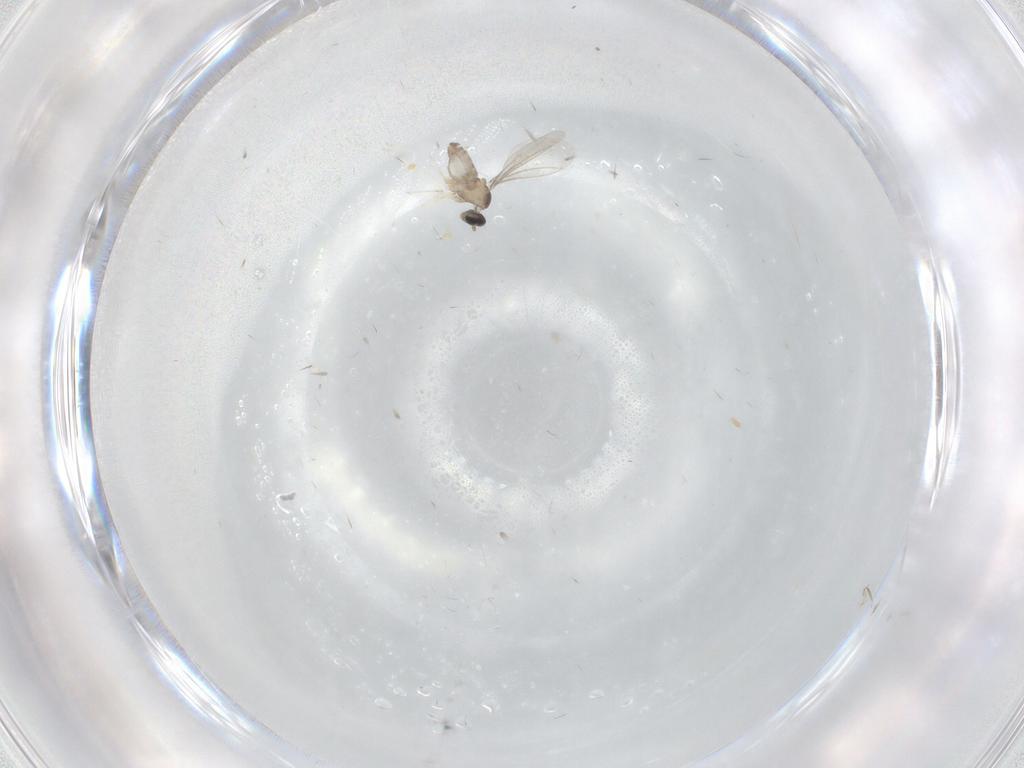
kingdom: Animalia
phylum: Arthropoda
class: Insecta
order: Diptera
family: Cecidomyiidae
